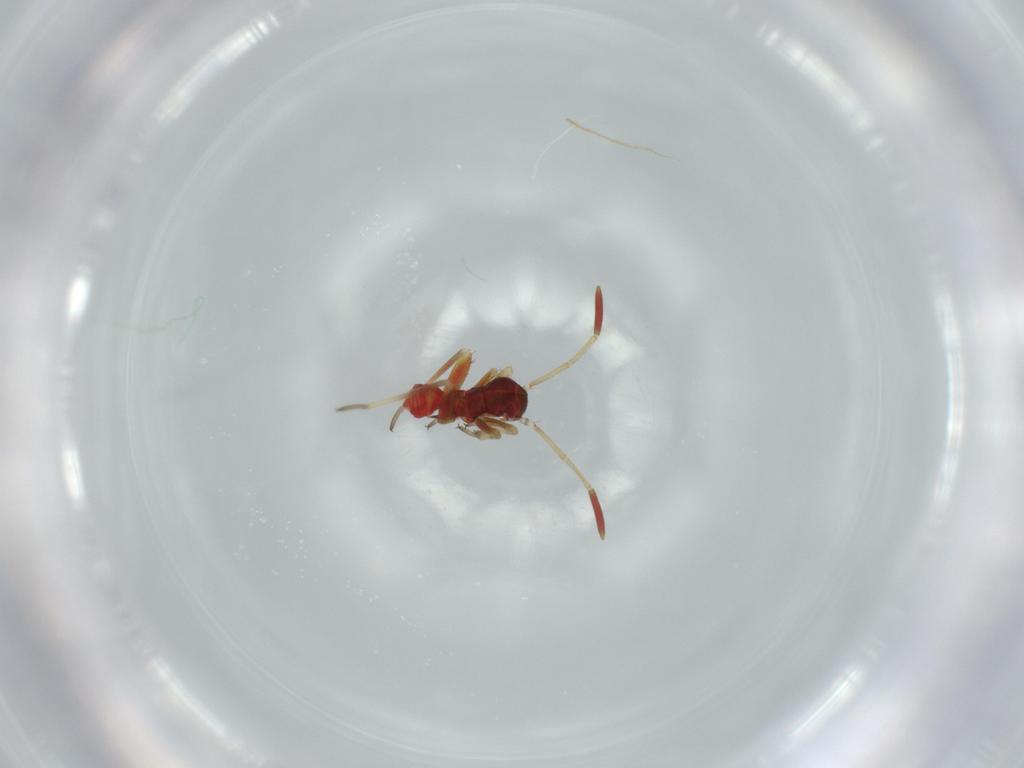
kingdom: Animalia
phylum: Arthropoda
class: Insecta
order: Hemiptera
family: Miridae
